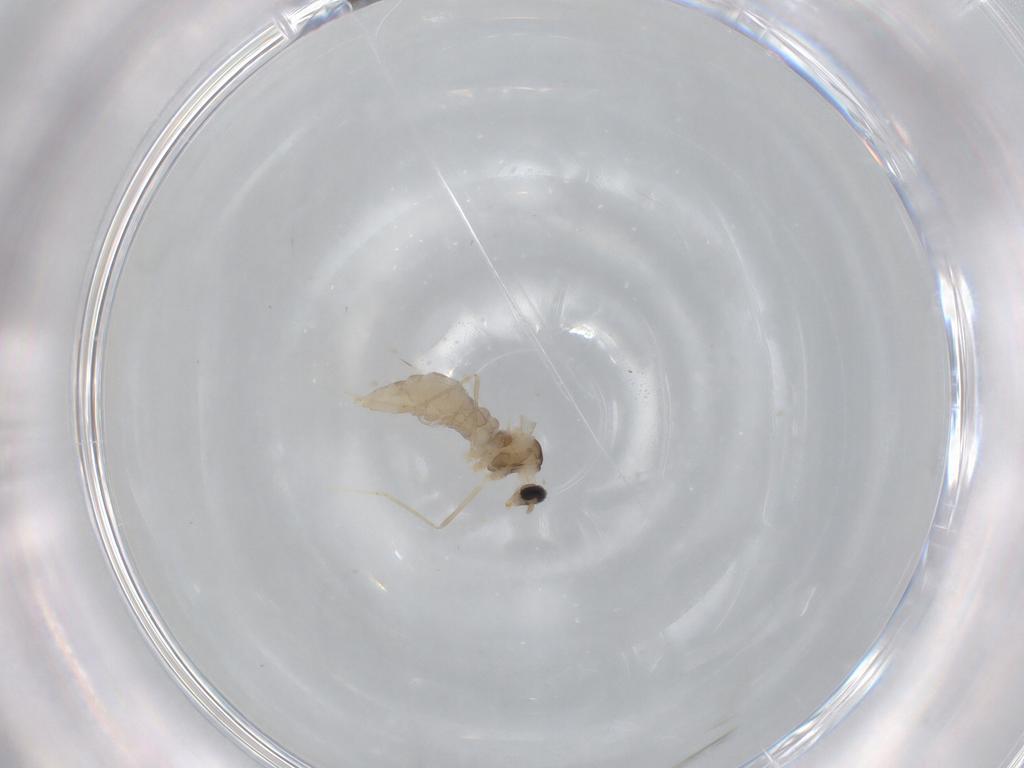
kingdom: Animalia
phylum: Arthropoda
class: Insecta
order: Diptera
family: Cecidomyiidae
